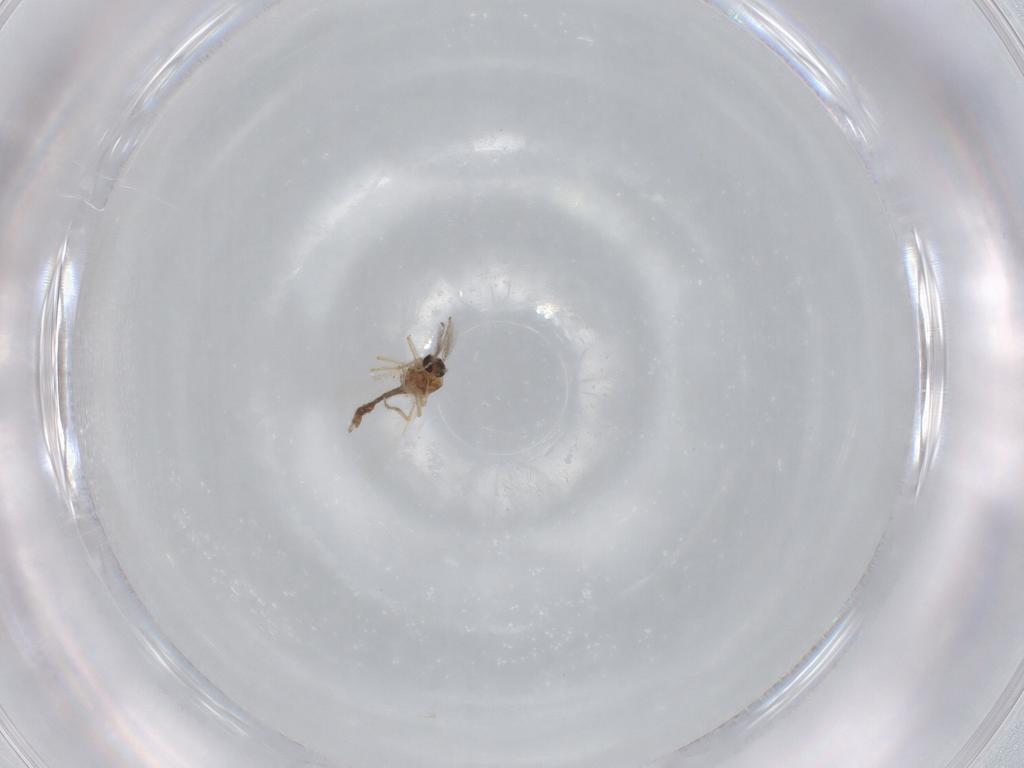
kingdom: Animalia
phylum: Arthropoda
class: Insecta
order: Diptera
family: Ceratopogonidae
